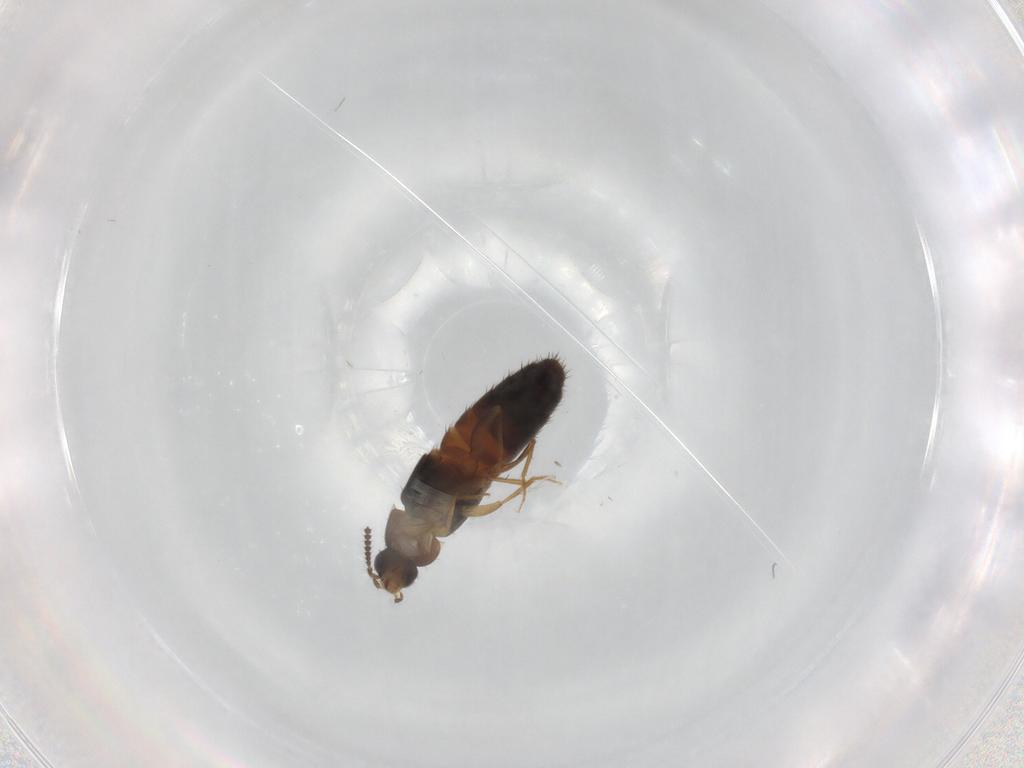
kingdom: Animalia
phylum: Arthropoda
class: Insecta
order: Coleoptera
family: Staphylinidae
